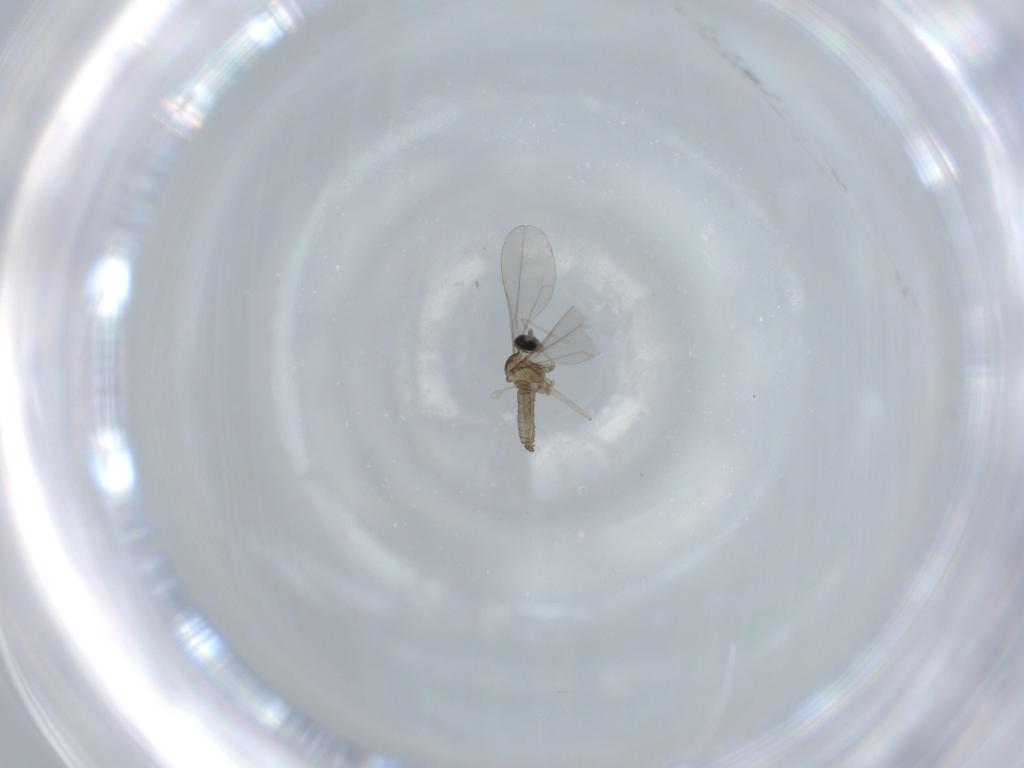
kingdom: Animalia
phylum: Arthropoda
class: Insecta
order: Diptera
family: Cecidomyiidae
